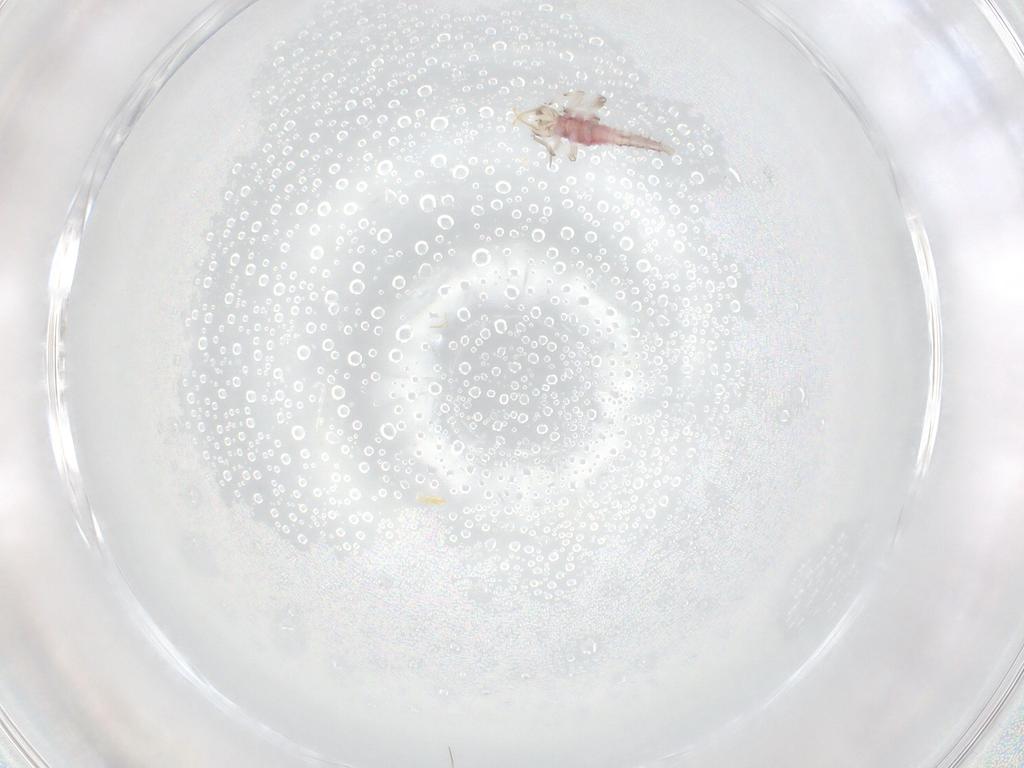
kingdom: Animalia
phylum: Arthropoda
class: Insecta
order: Neuroptera
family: Hemerobiidae
